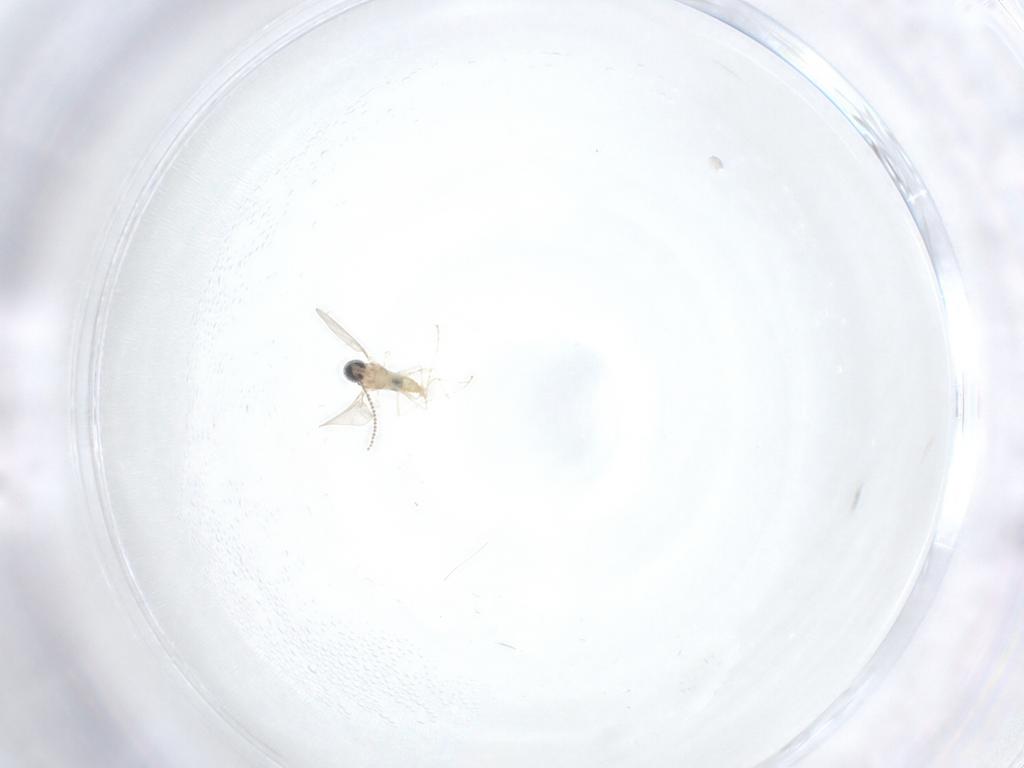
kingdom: Animalia
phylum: Arthropoda
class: Insecta
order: Diptera
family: Cecidomyiidae
